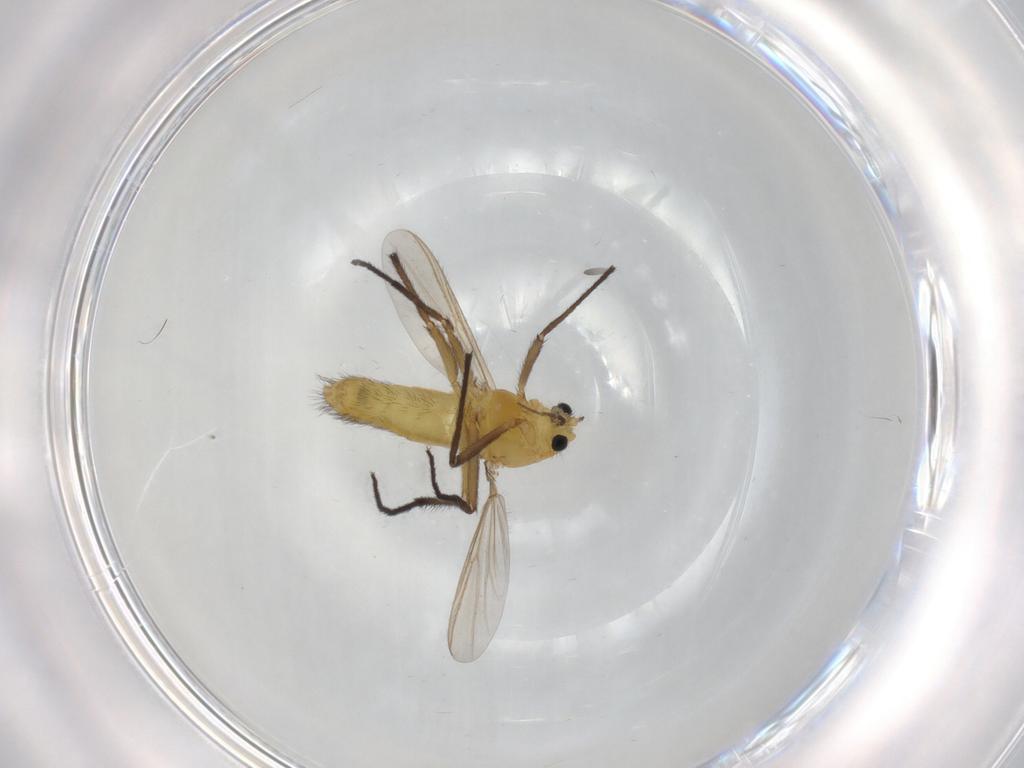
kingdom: Animalia
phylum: Arthropoda
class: Insecta
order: Diptera
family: Chironomidae
